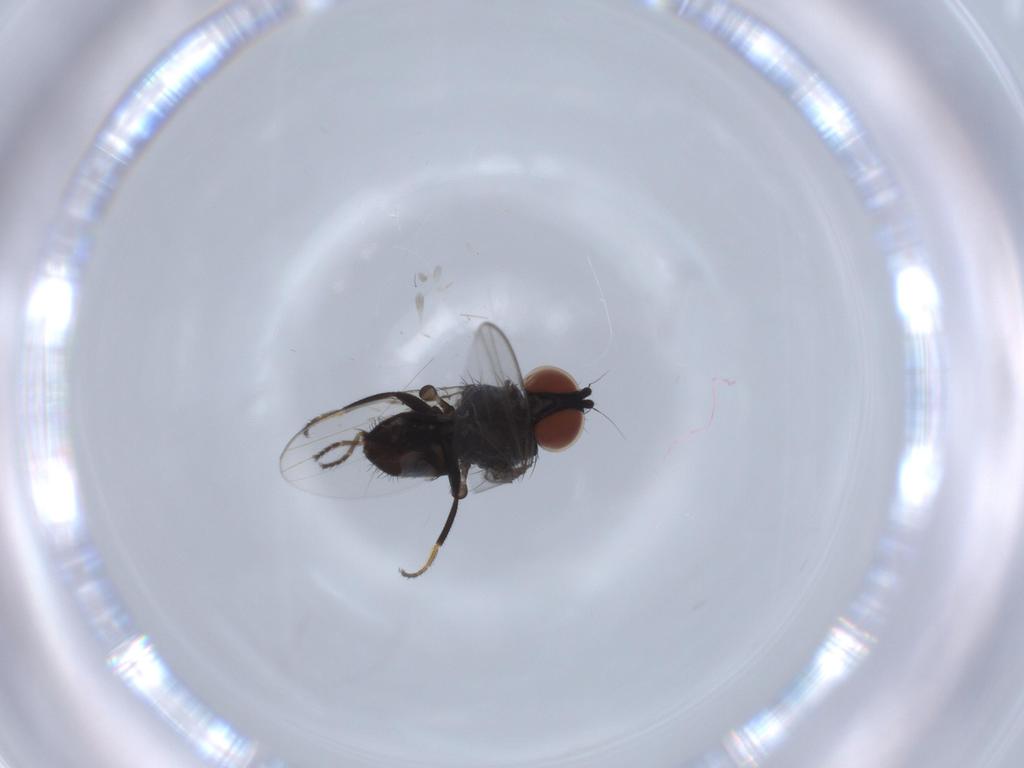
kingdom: Animalia
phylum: Arthropoda
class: Insecta
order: Diptera
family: Milichiidae
